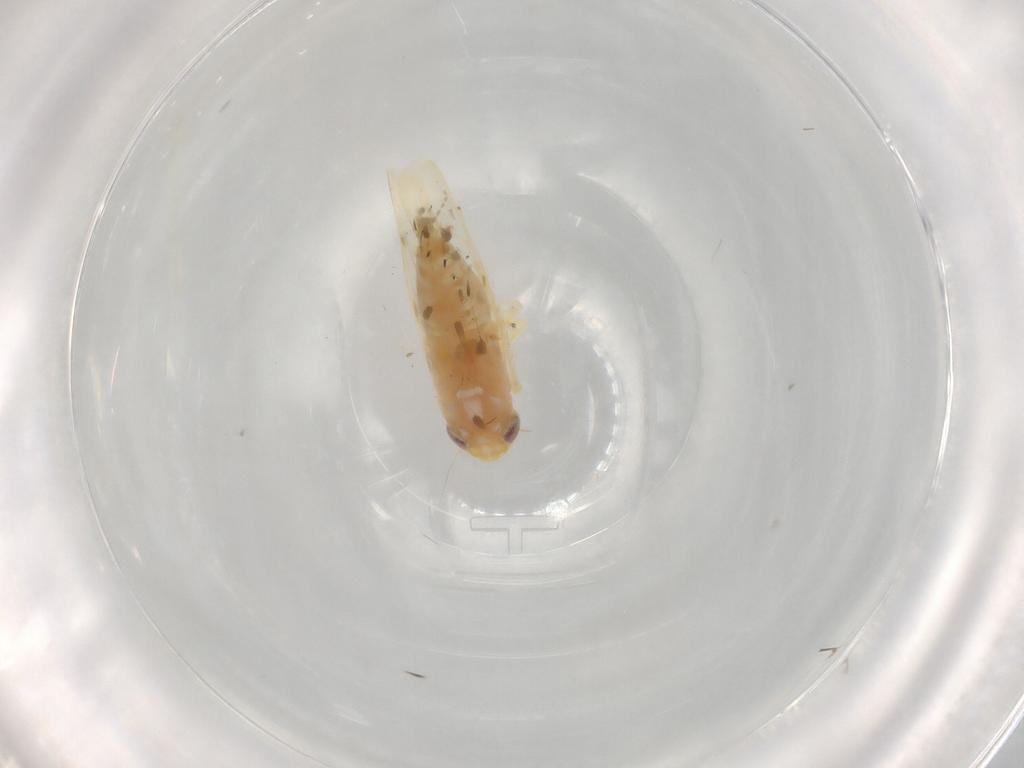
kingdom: Animalia
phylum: Arthropoda
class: Insecta
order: Hemiptera
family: Cicadellidae
